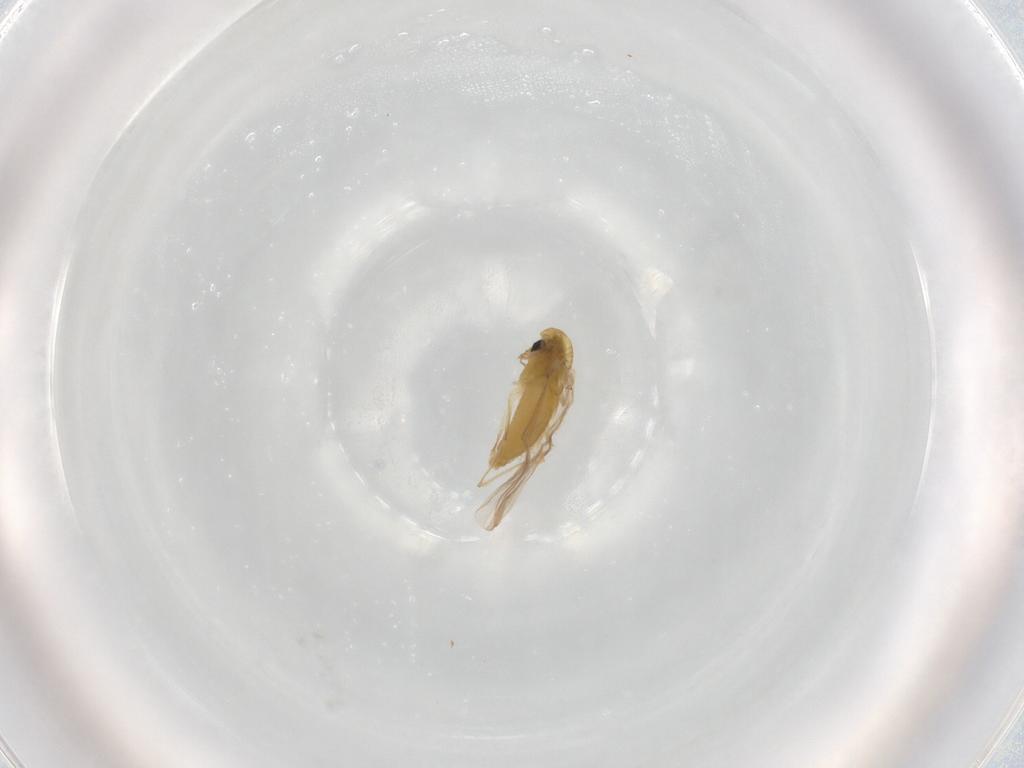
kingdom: Animalia
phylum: Arthropoda
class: Insecta
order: Diptera
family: Chironomidae
